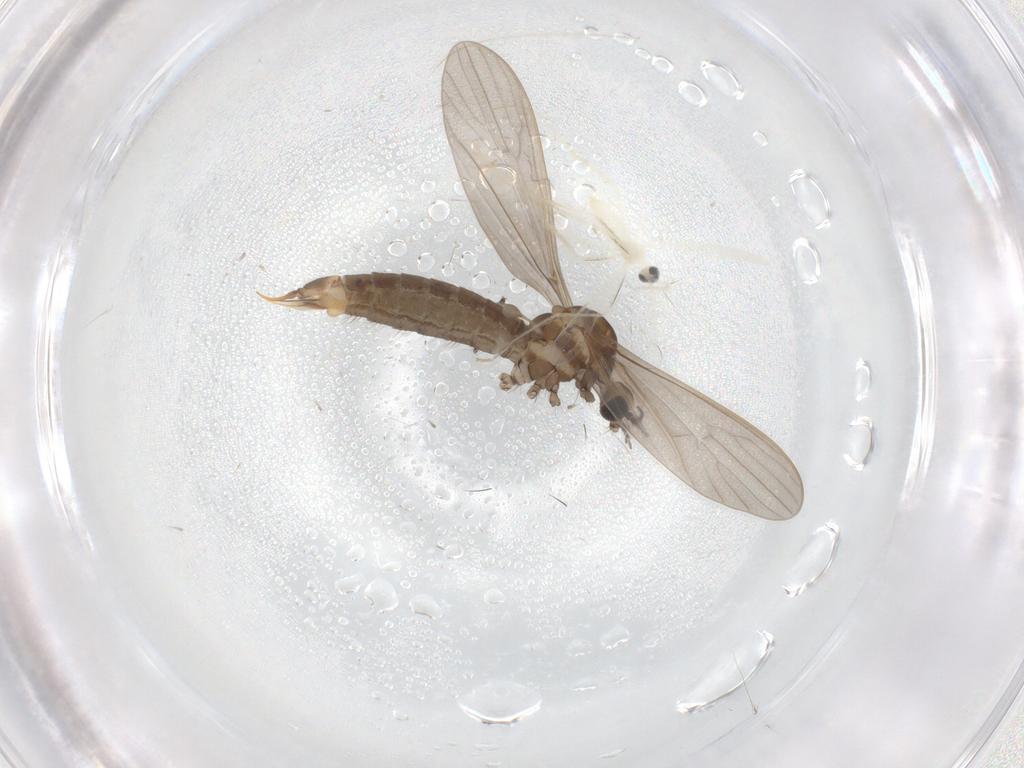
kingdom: Animalia
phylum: Arthropoda
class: Insecta
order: Diptera
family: Limoniidae
